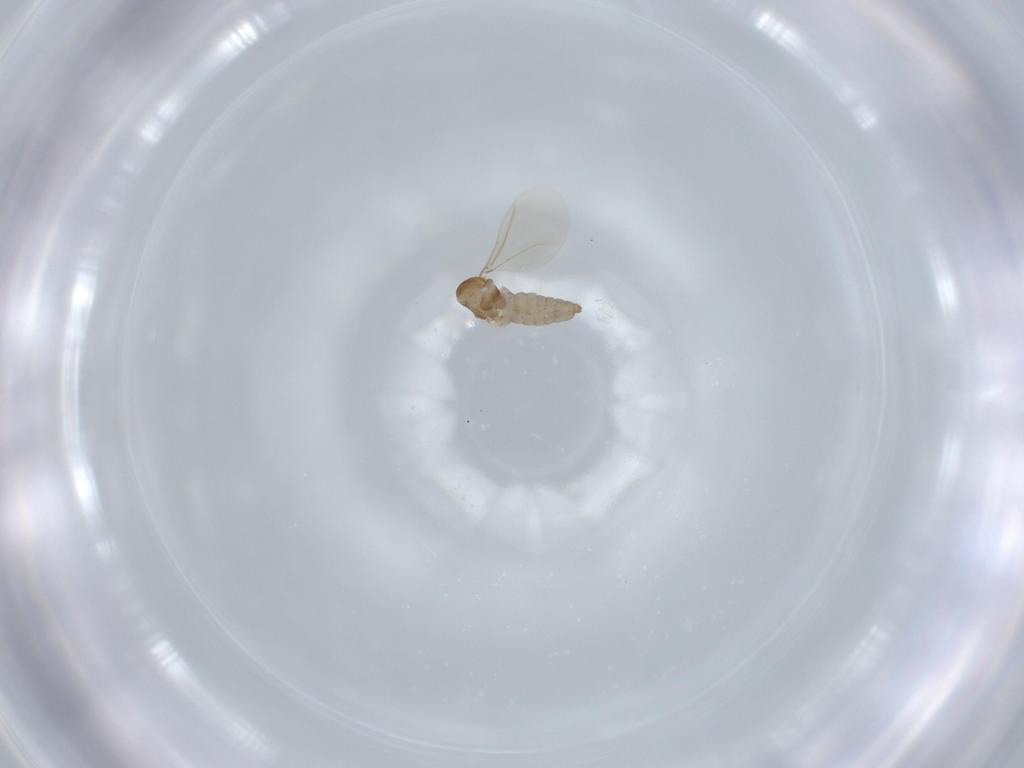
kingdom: Animalia
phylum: Arthropoda
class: Insecta
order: Diptera
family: Cecidomyiidae
